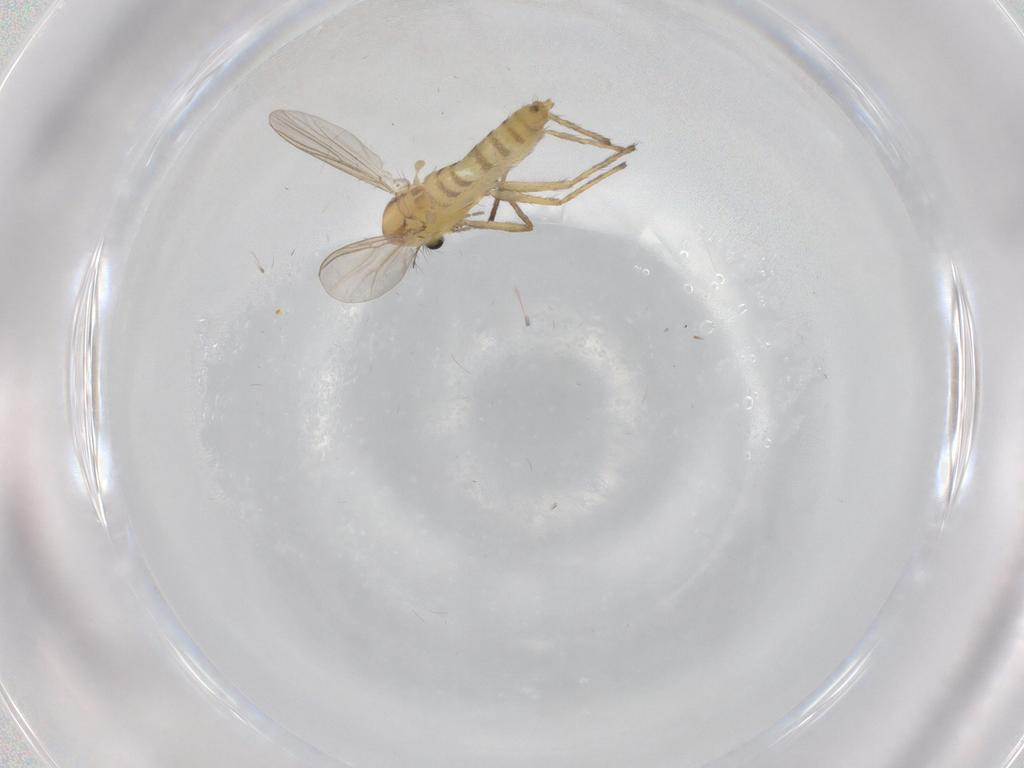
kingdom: Animalia
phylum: Arthropoda
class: Insecta
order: Diptera
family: Chironomidae
